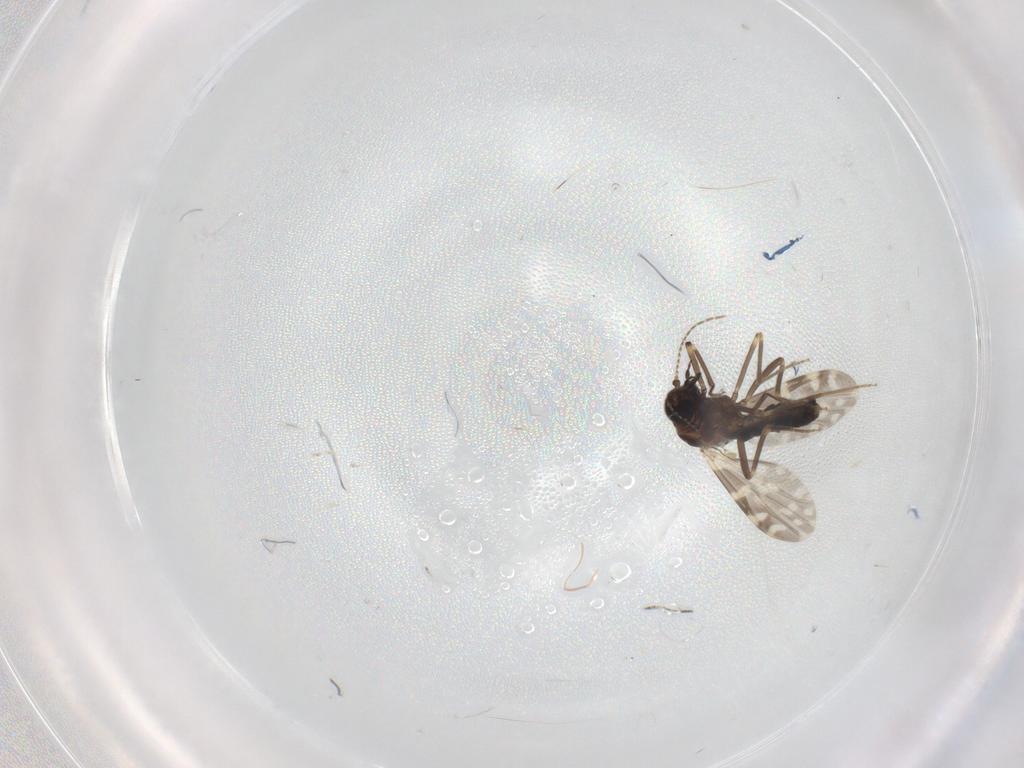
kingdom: Animalia
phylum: Arthropoda
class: Insecta
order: Diptera
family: Ceratopogonidae
